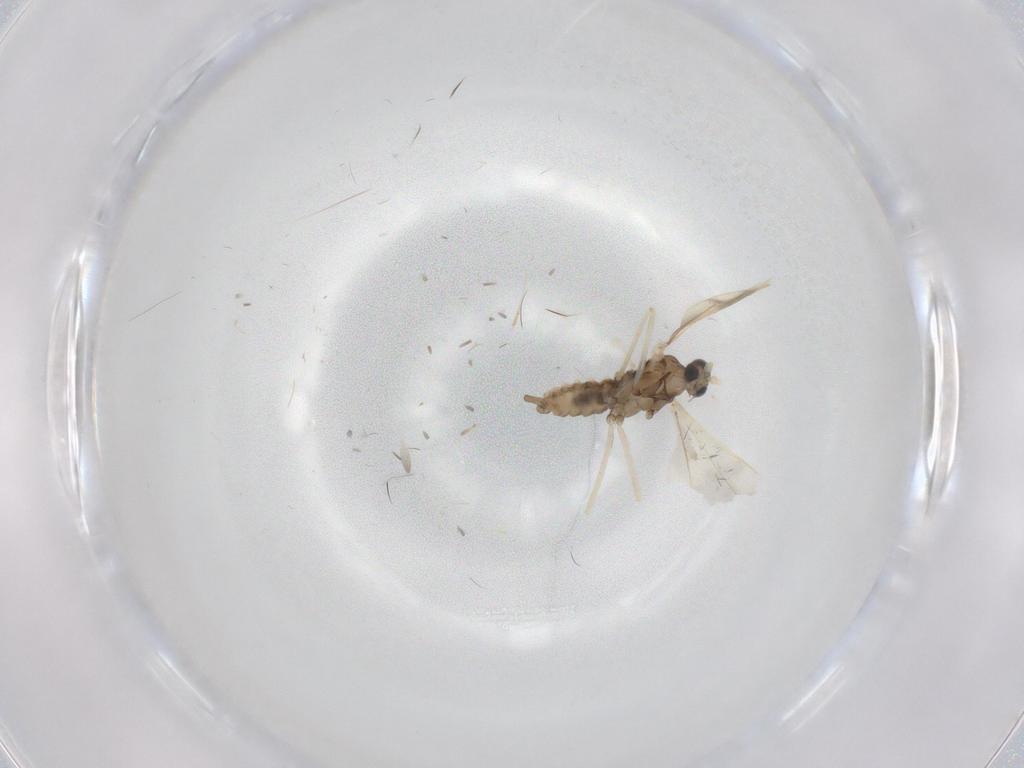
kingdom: Animalia
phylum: Arthropoda
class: Insecta
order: Diptera
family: Cecidomyiidae
